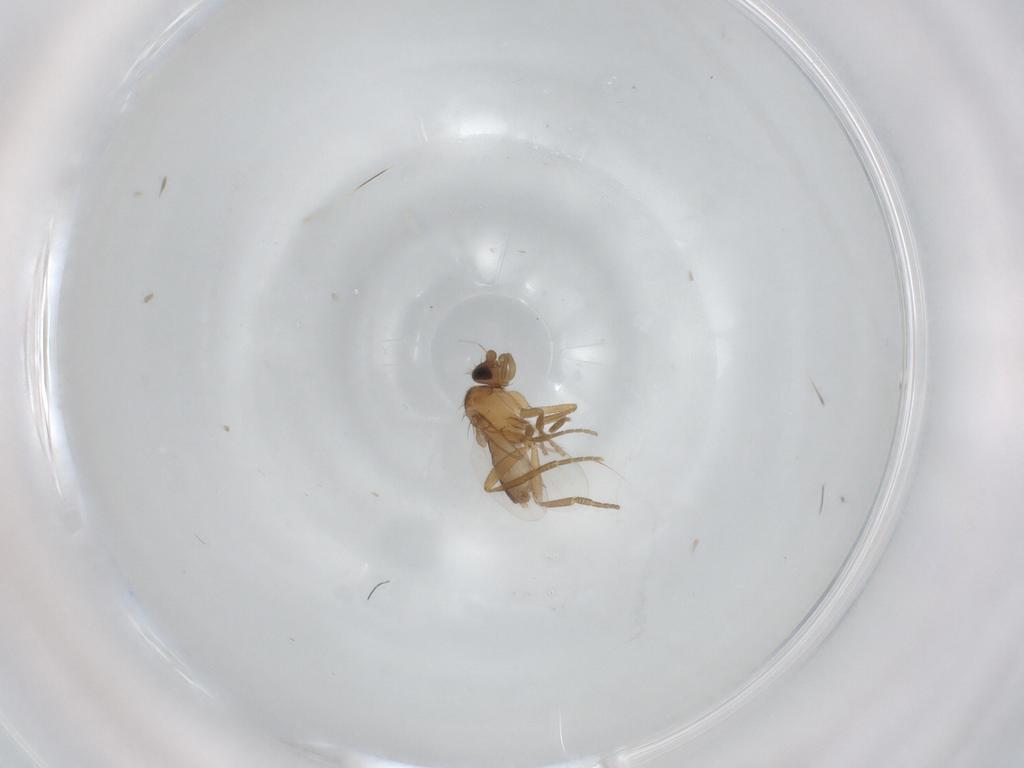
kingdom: Animalia
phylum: Arthropoda
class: Insecta
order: Diptera
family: Phoridae
